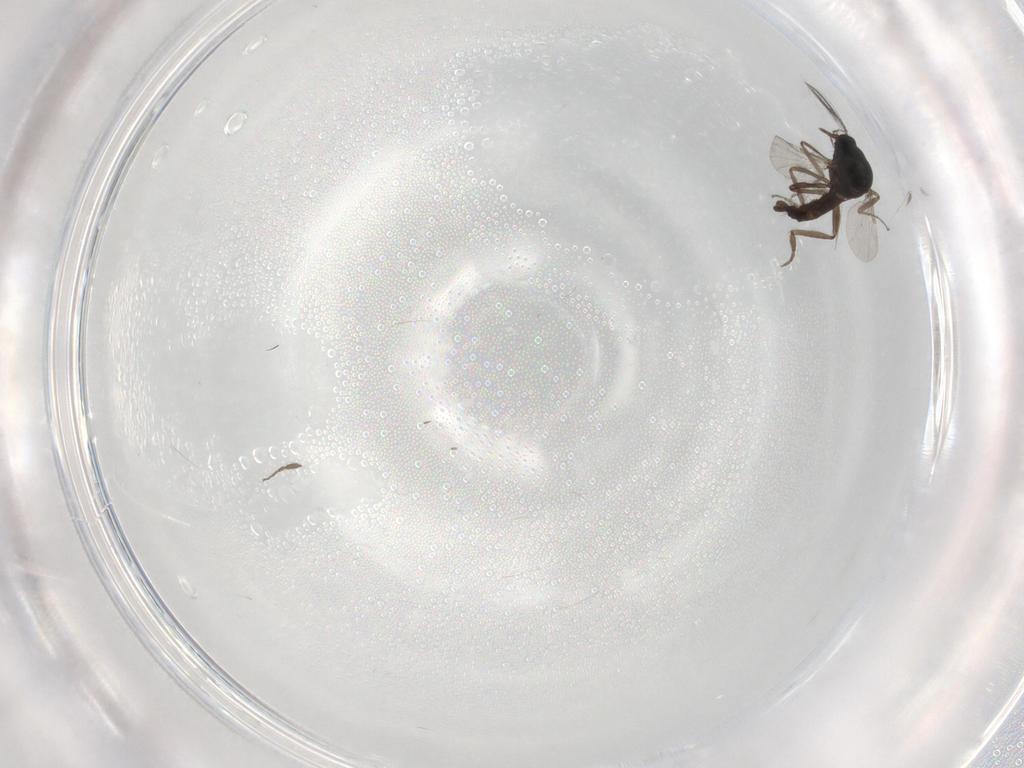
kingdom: Animalia
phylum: Arthropoda
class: Insecta
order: Diptera
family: Ceratopogonidae
